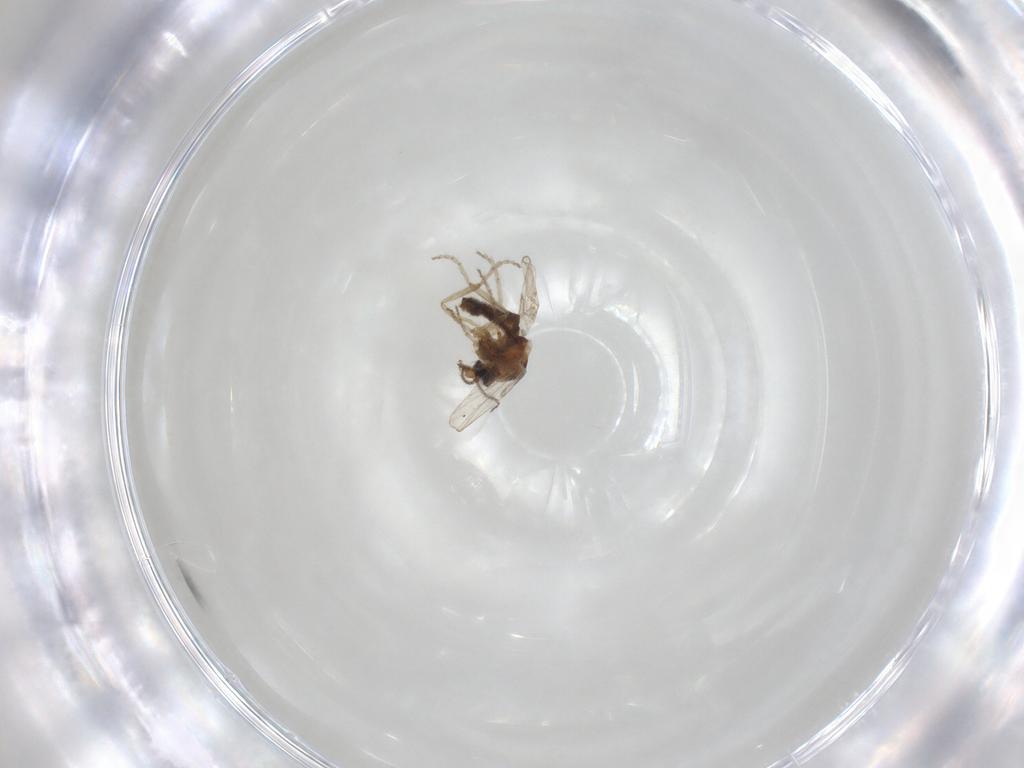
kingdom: Animalia
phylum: Arthropoda
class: Insecta
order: Diptera
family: Ceratopogonidae
